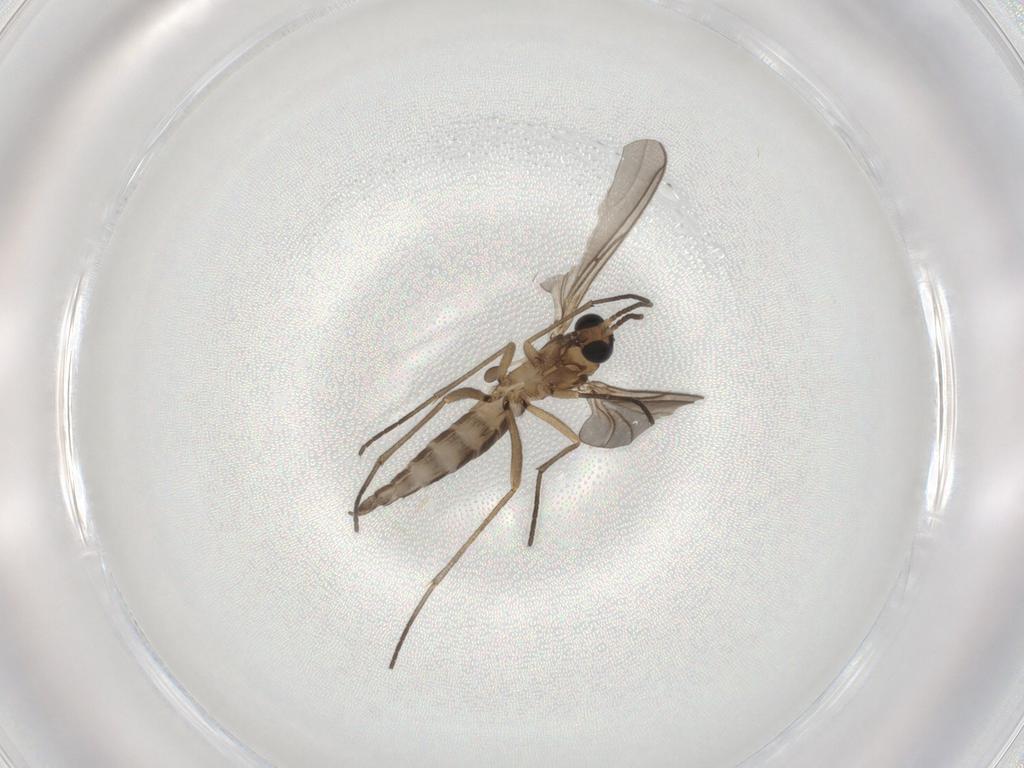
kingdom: Animalia
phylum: Arthropoda
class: Insecta
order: Diptera
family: Sciaridae
